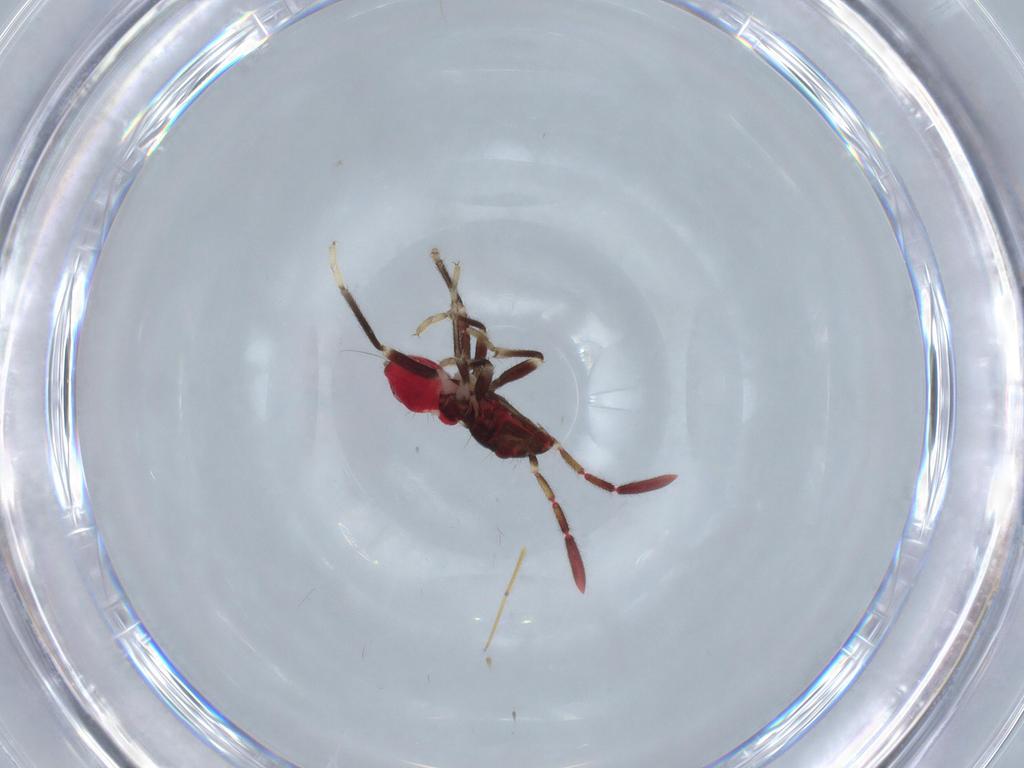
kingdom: Animalia
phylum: Arthropoda
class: Insecta
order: Hemiptera
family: Rhyparochromidae
